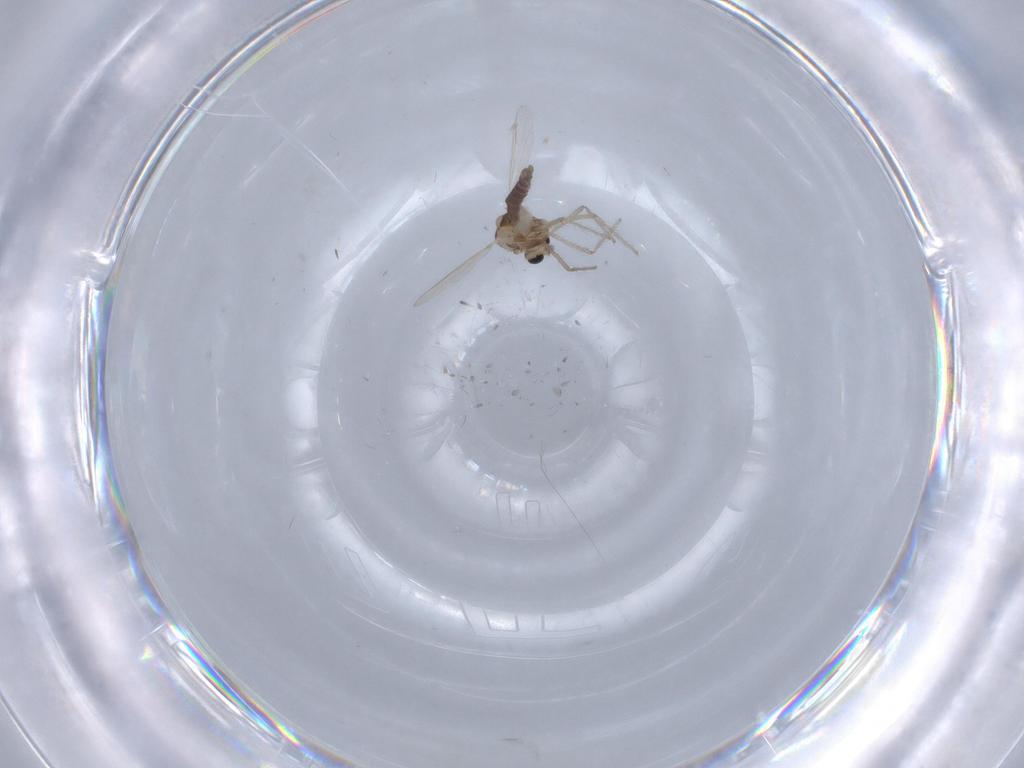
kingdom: Animalia
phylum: Arthropoda
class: Insecta
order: Diptera
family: Chironomidae
